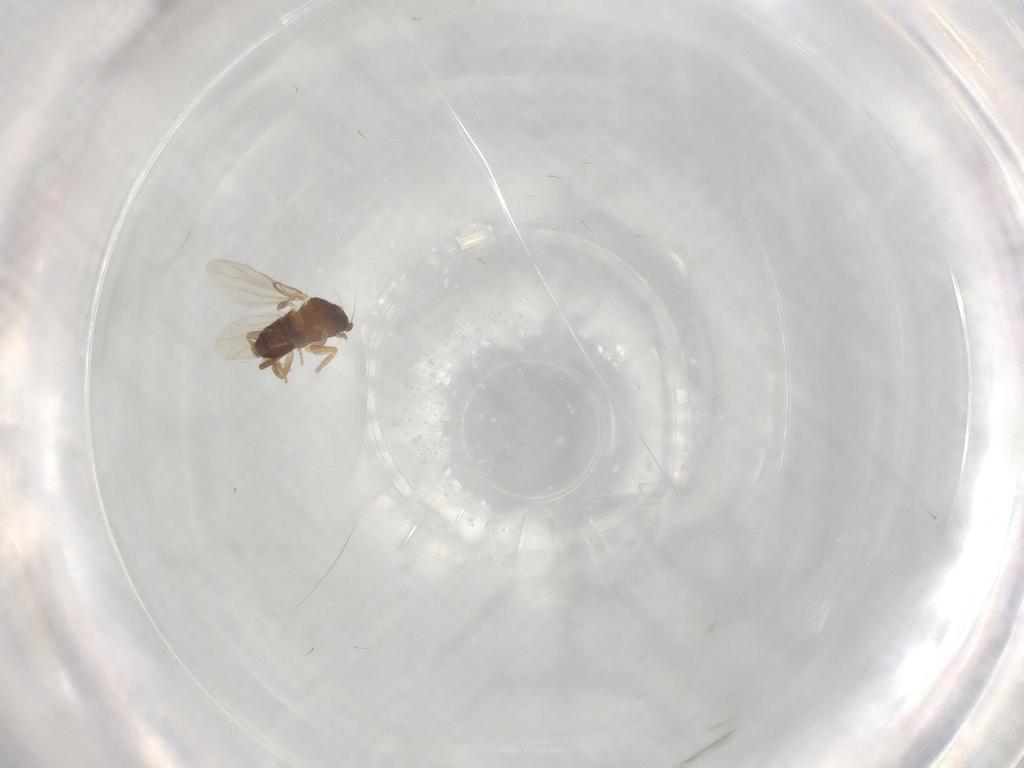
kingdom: Animalia
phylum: Arthropoda
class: Insecta
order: Diptera
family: Phoridae
